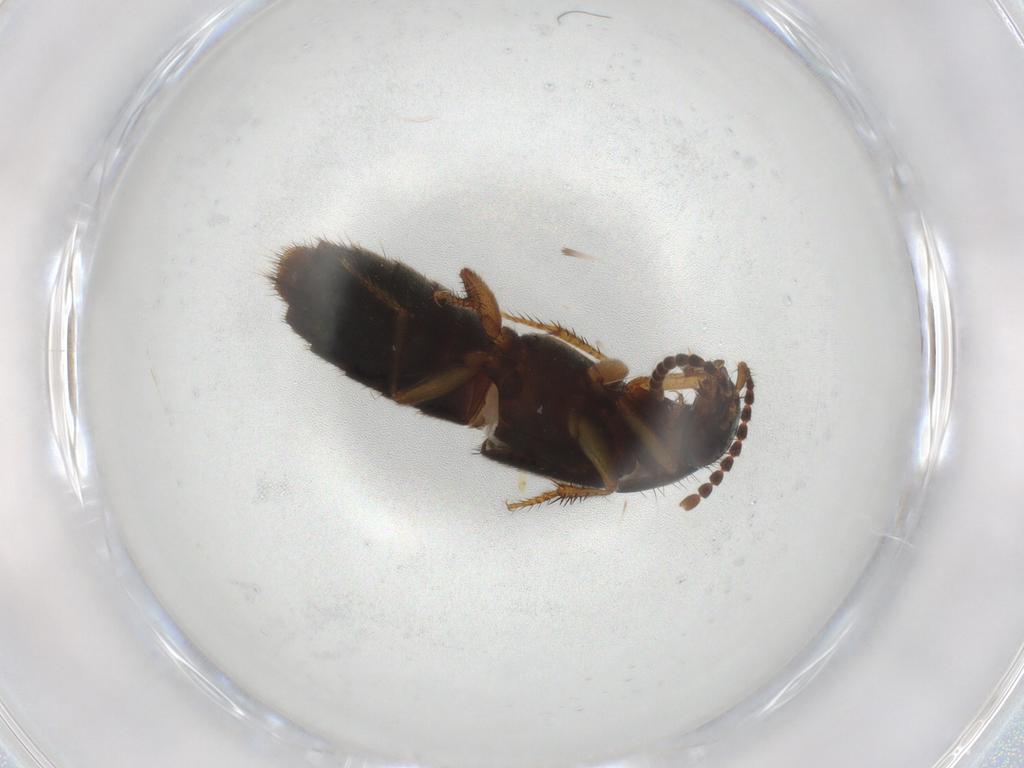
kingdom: Animalia
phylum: Arthropoda
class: Insecta
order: Coleoptera
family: Staphylinidae
